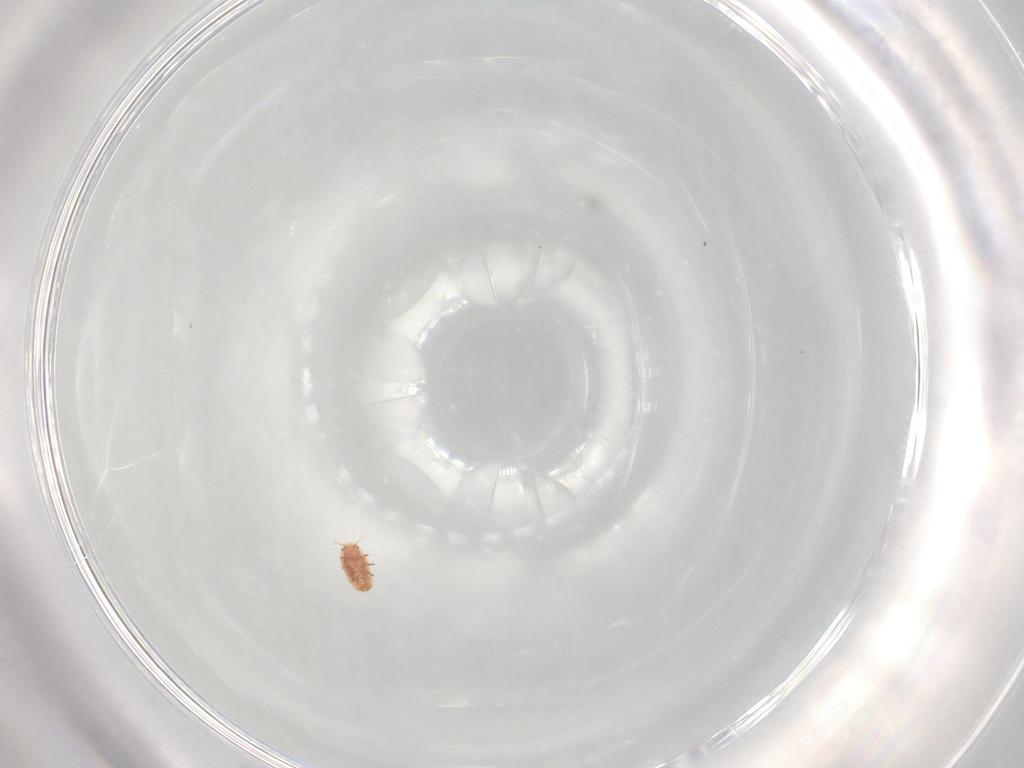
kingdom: Animalia
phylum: Arthropoda
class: Insecta
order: Hemiptera
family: Coccidae
